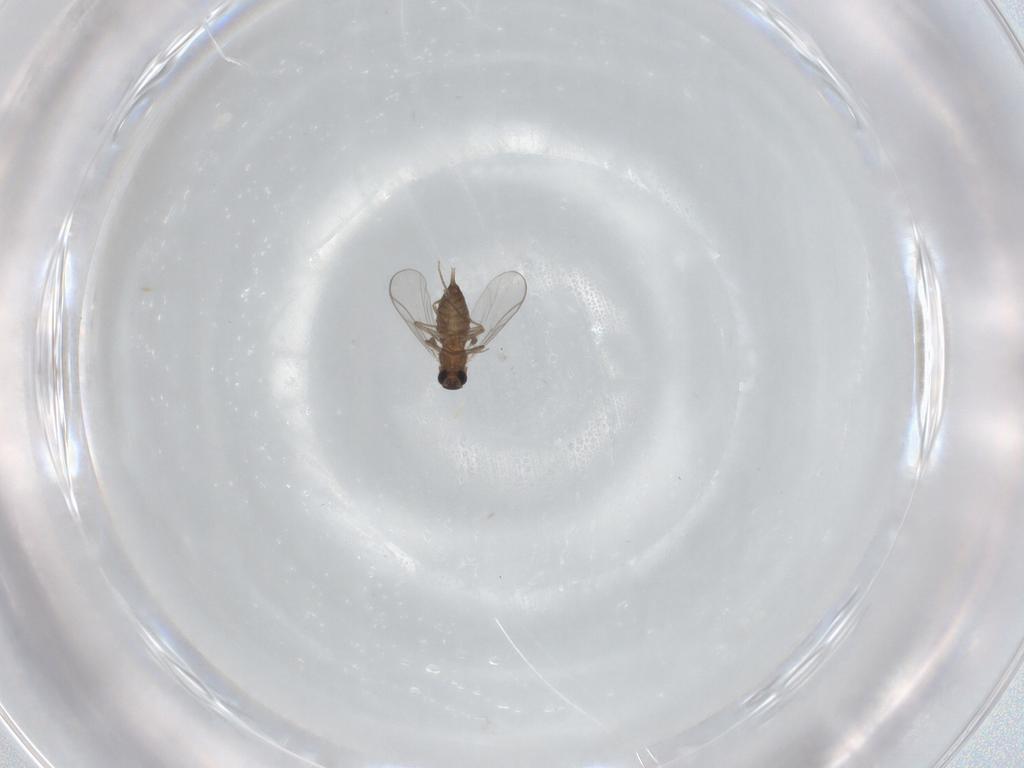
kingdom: Animalia
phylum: Arthropoda
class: Insecta
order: Diptera
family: Chironomidae
